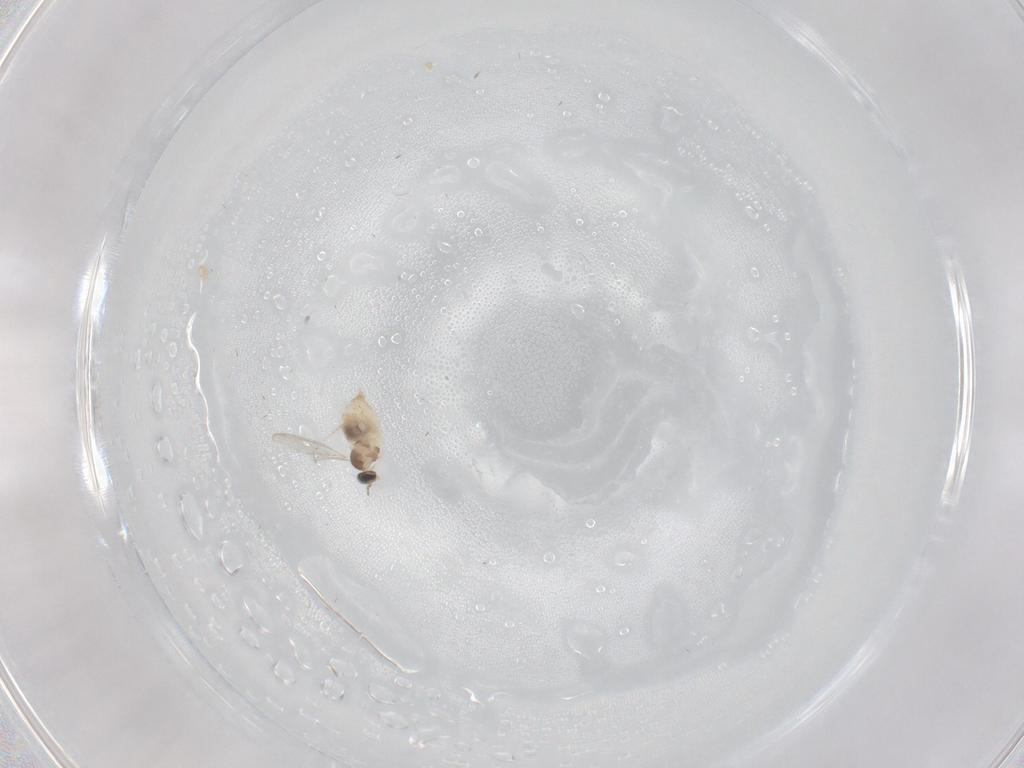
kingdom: Animalia
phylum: Arthropoda
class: Insecta
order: Diptera
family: Cecidomyiidae
